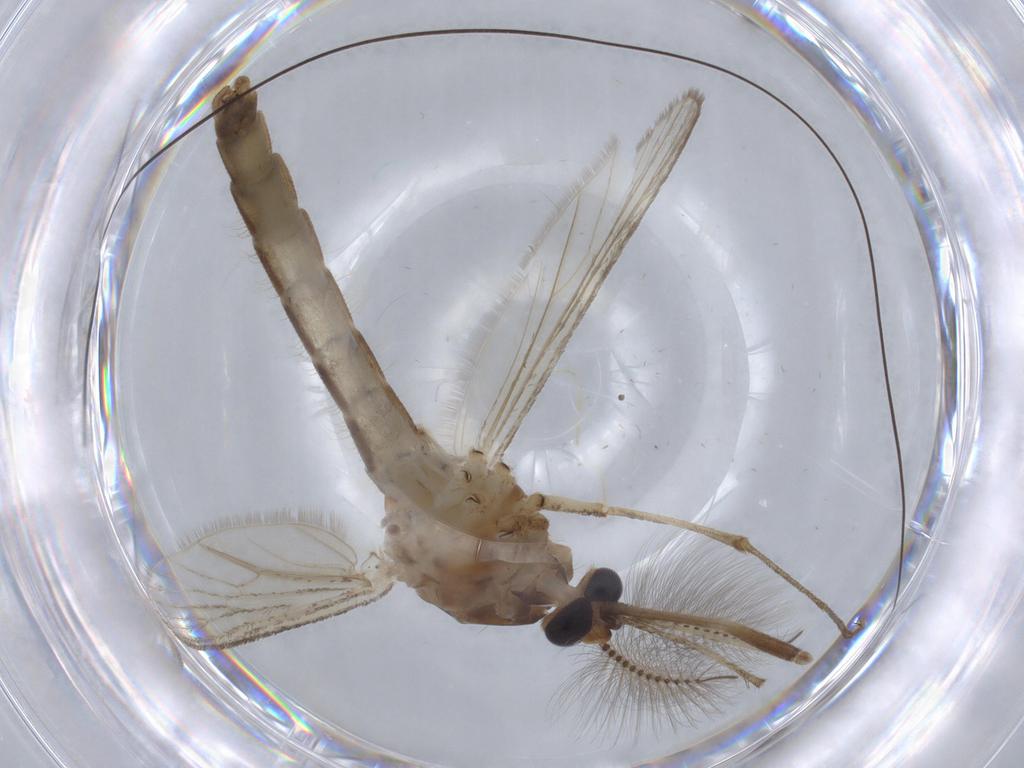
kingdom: Animalia
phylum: Arthropoda
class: Insecta
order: Diptera
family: Culicidae
